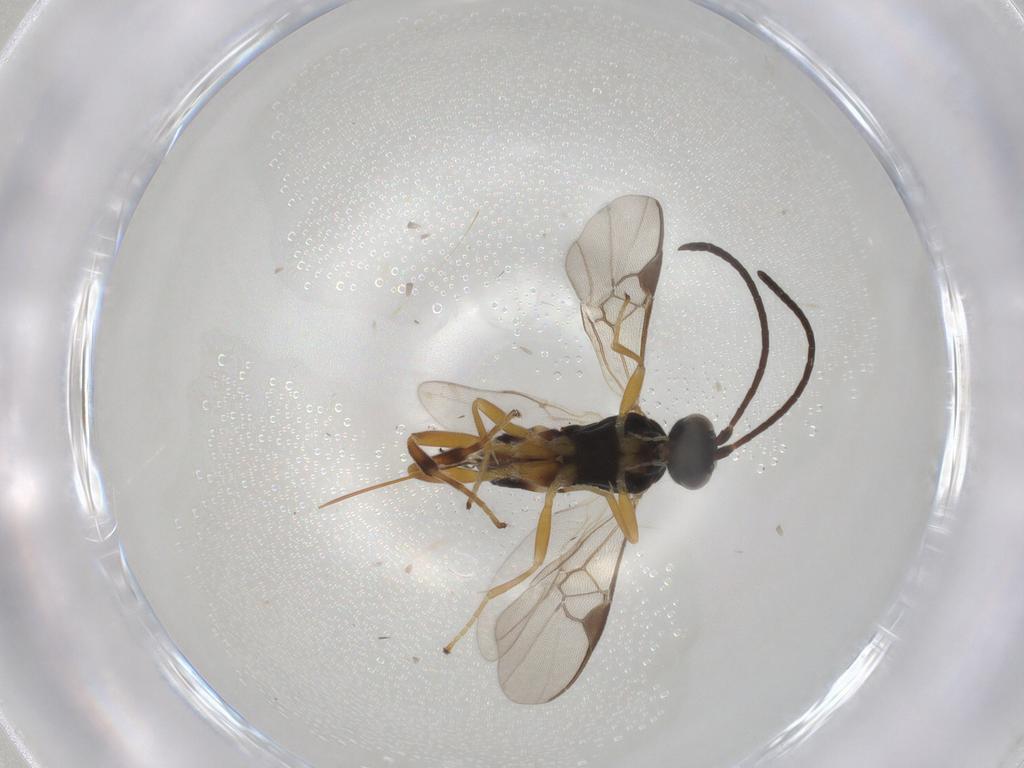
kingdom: Animalia
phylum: Arthropoda
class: Insecta
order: Hymenoptera
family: Braconidae
